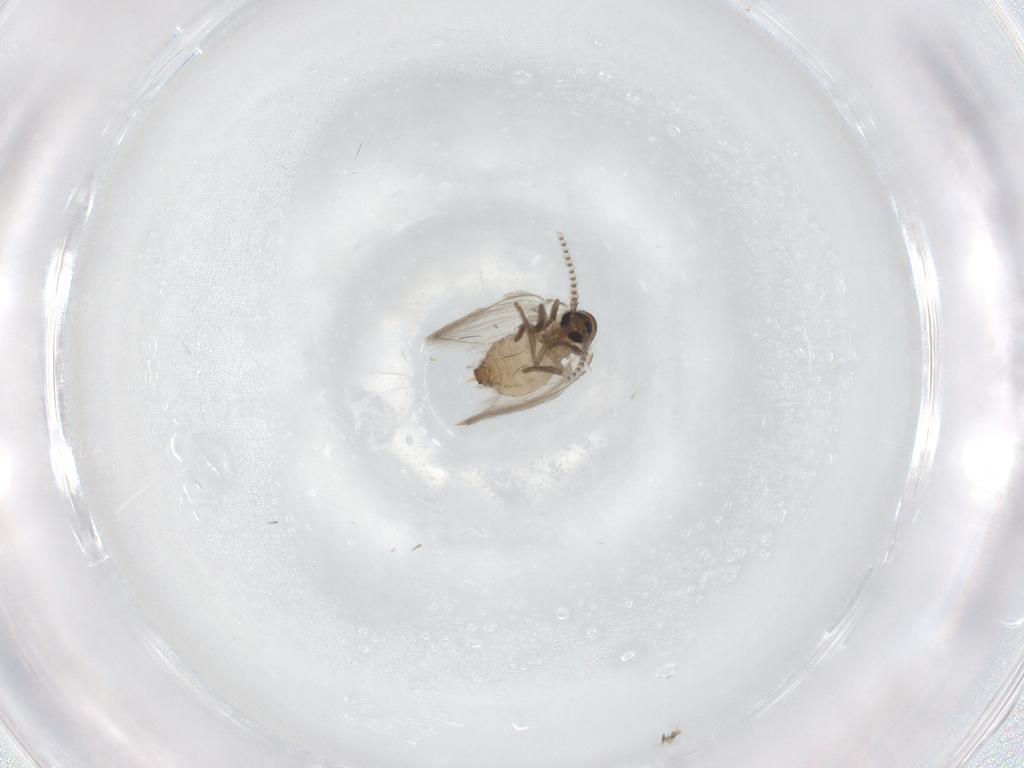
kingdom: Animalia
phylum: Arthropoda
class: Insecta
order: Diptera
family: Psychodidae
